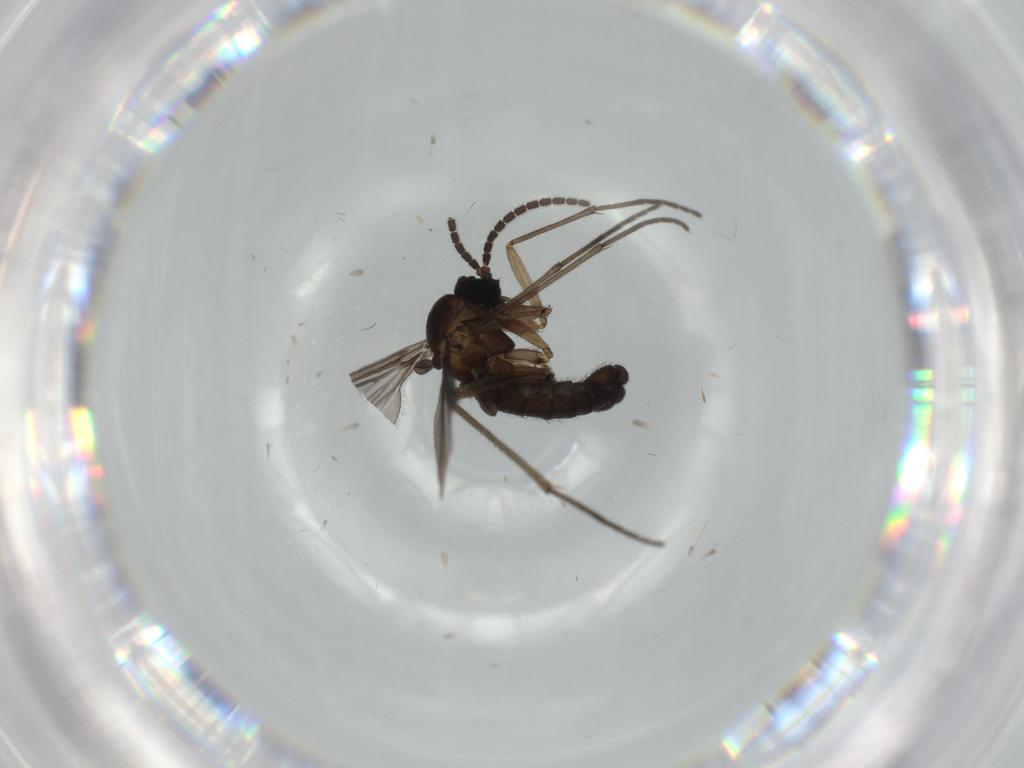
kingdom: Animalia
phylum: Arthropoda
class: Insecta
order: Diptera
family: Sciaridae
